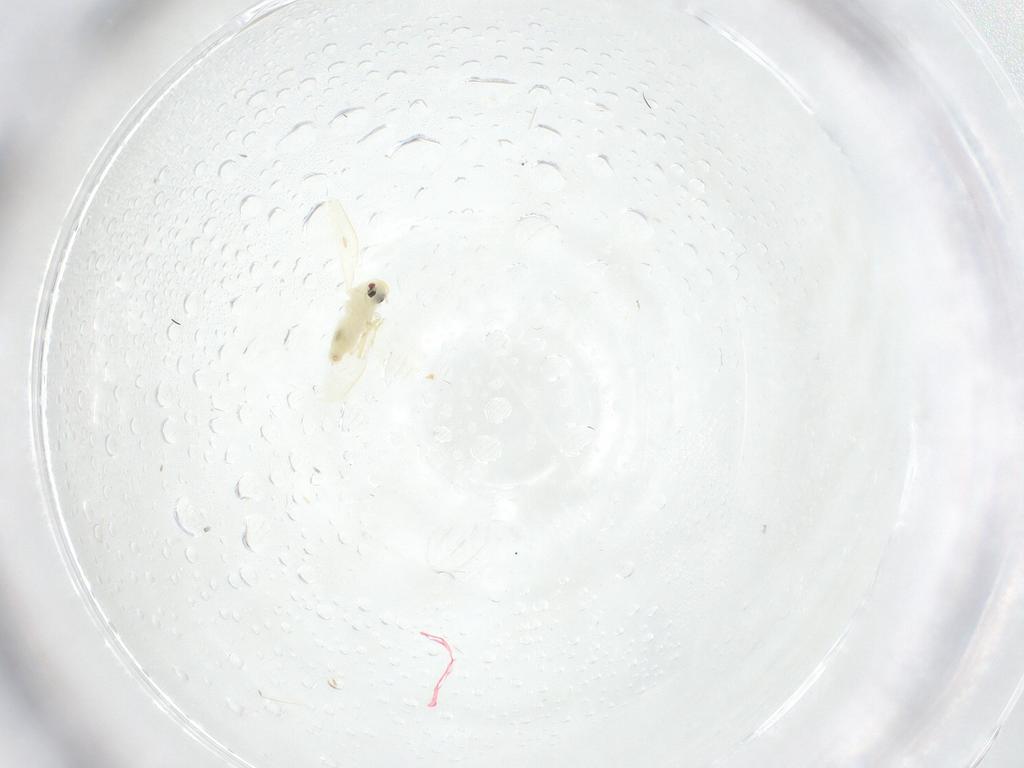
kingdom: Animalia
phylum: Arthropoda
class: Insecta
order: Hemiptera
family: Aleyrodidae
